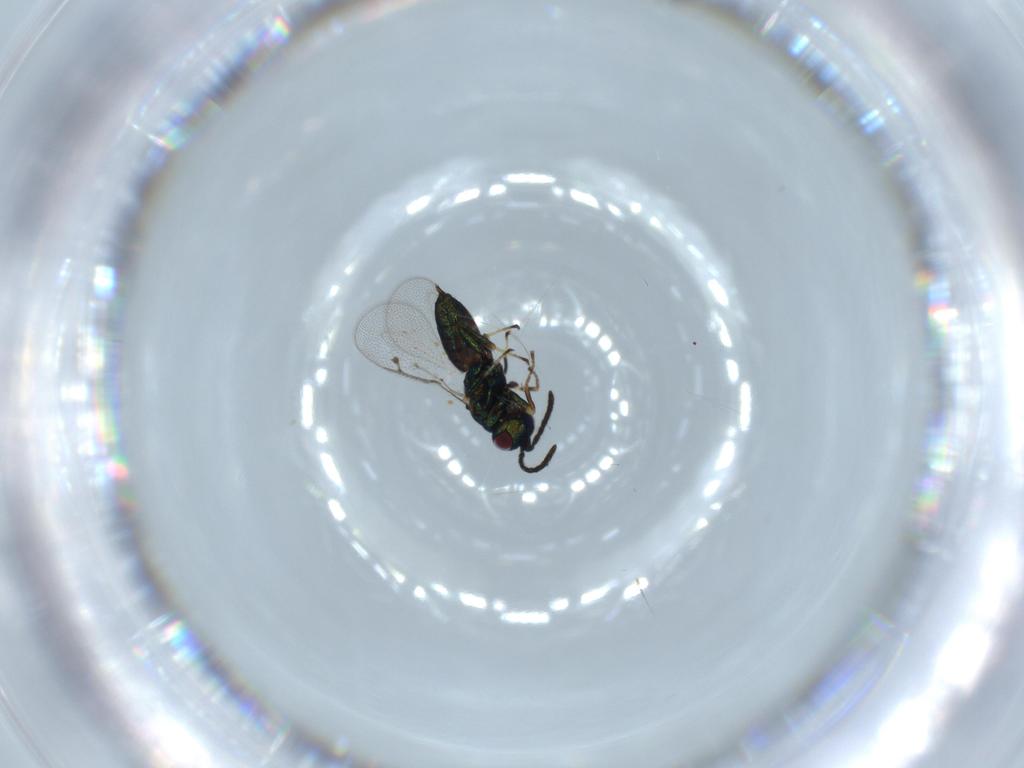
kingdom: Animalia
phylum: Arthropoda
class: Insecta
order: Hymenoptera
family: Pteromalidae
